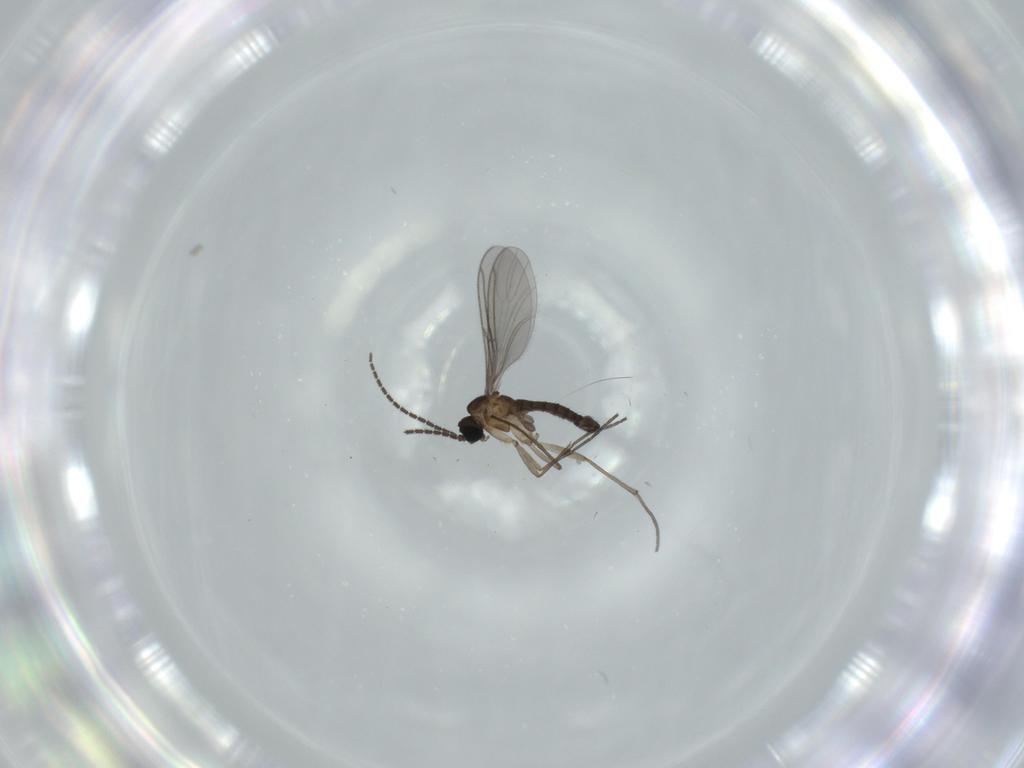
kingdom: Animalia
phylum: Arthropoda
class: Insecta
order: Diptera
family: Sciaridae
